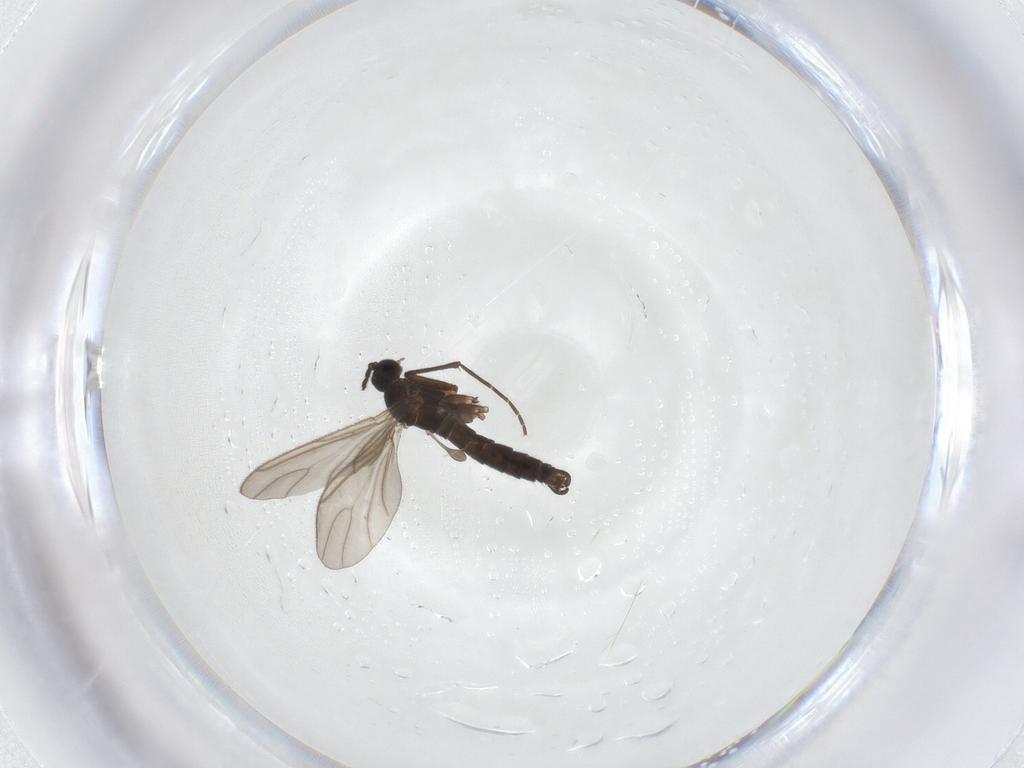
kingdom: Animalia
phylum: Arthropoda
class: Insecta
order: Diptera
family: Sciaridae
